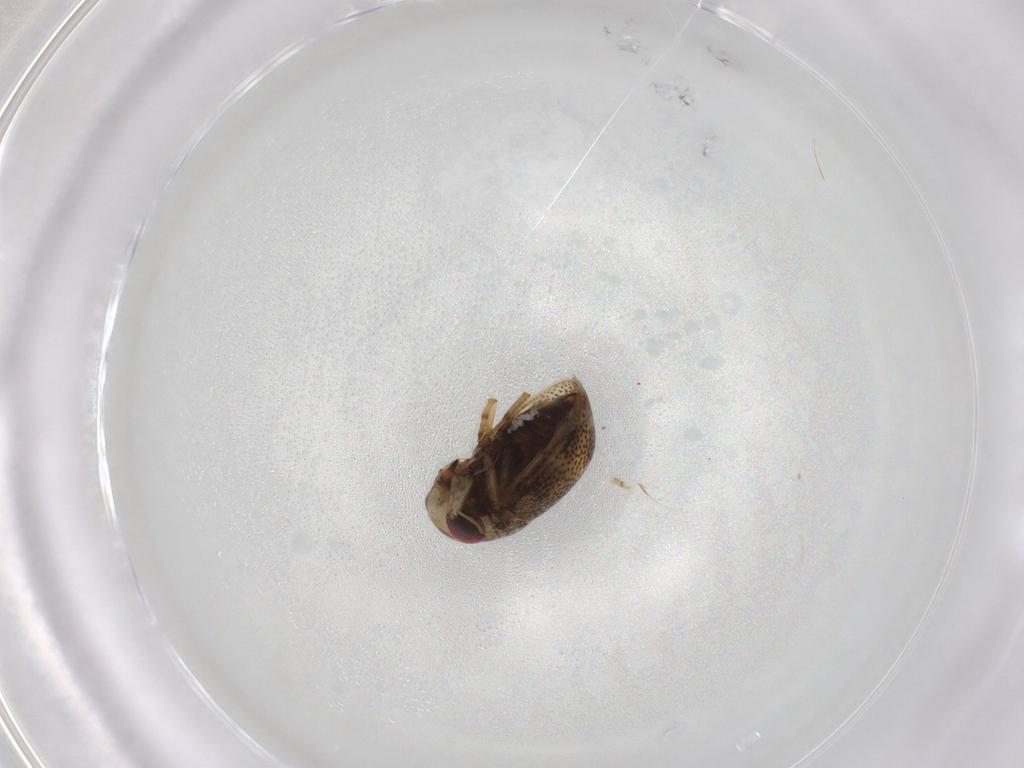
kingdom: Animalia
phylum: Arthropoda
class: Insecta
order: Hemiptera
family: Pleidae
